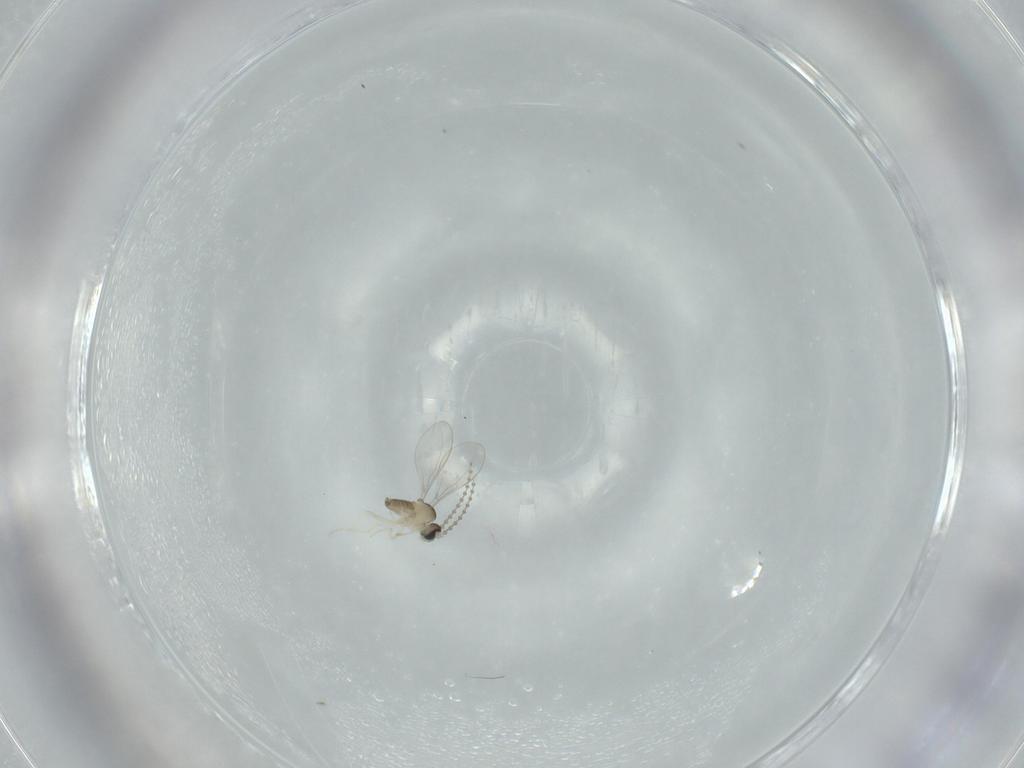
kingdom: Animalia
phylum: Arthropoda
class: Insecta
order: Diptera
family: Cecidomyiidae
